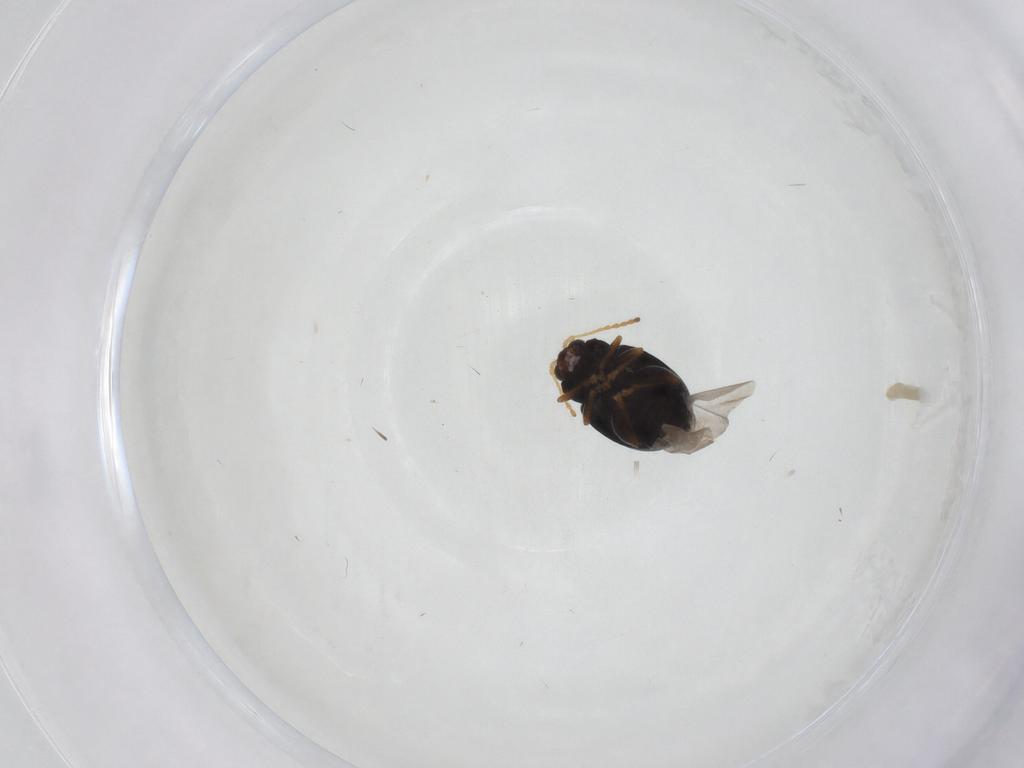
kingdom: Animalia
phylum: Arthropoda
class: Insecta
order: Coleoptera
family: Chrysomelidae
